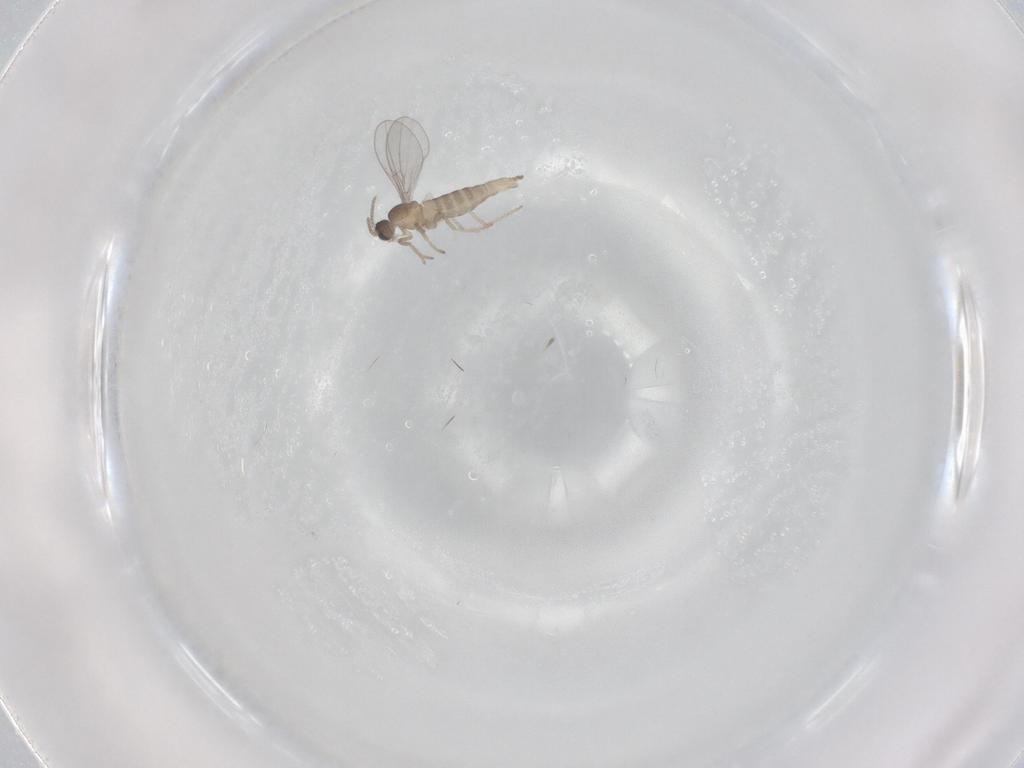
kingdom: Animalia
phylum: Arthropoda
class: Insecta
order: Diptera
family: Cecidomyiidae
